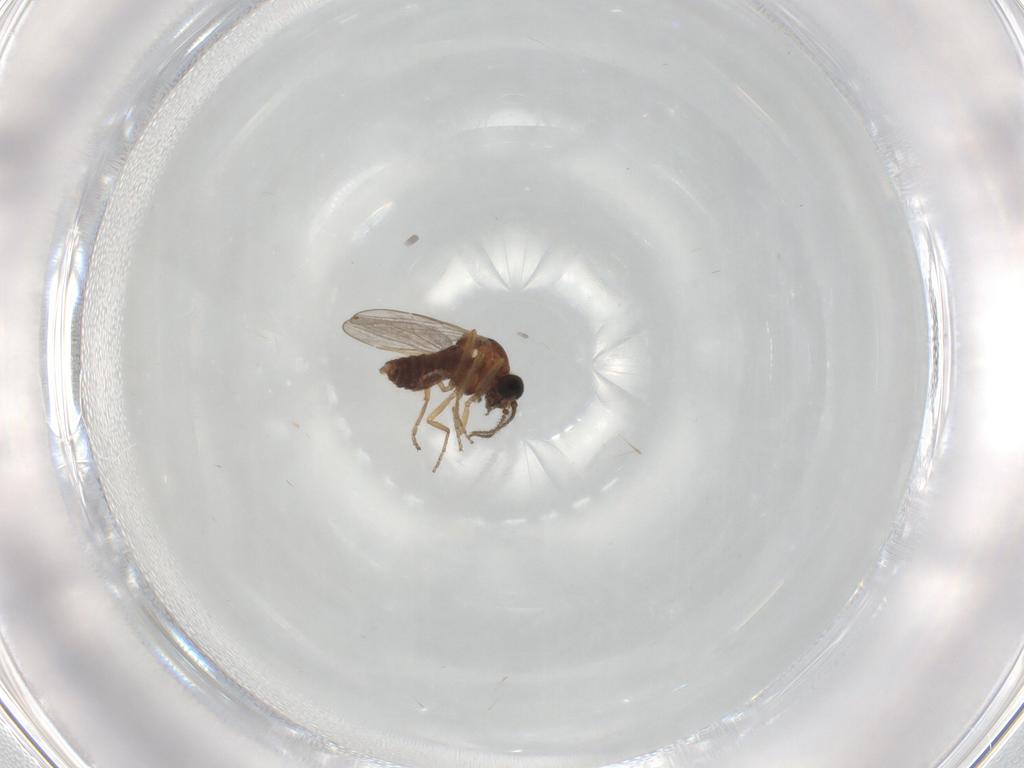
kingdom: Animalia
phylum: Arthropoda
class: Insecta
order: Diptera
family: Ceratopogonidae
